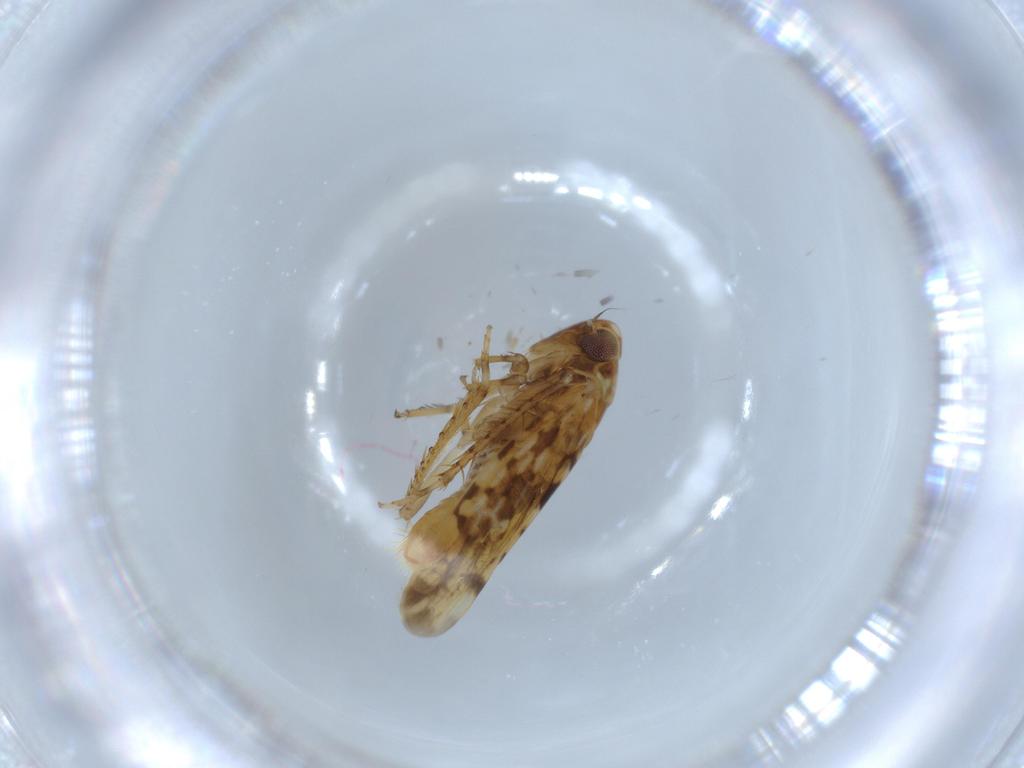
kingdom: Animalia
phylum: Arthropoda
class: Insecta
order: Hemiptera
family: Cicadellidae
